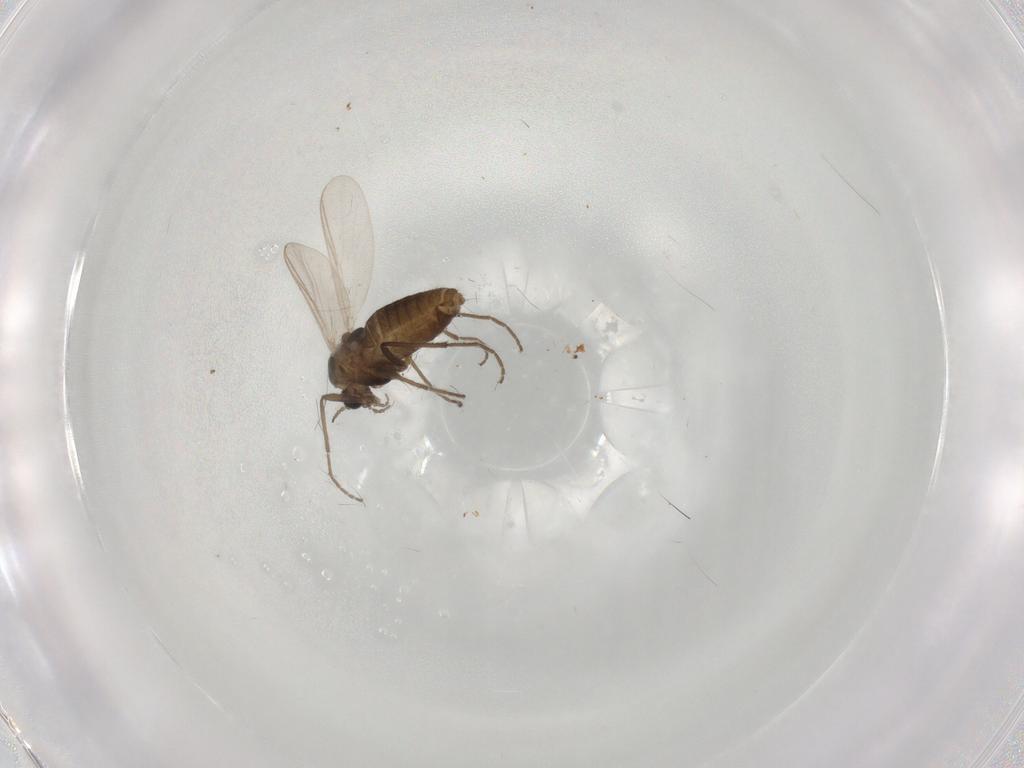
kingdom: Animalia
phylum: Arthropoda
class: Insecta
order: Diptera
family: Chironomidae
